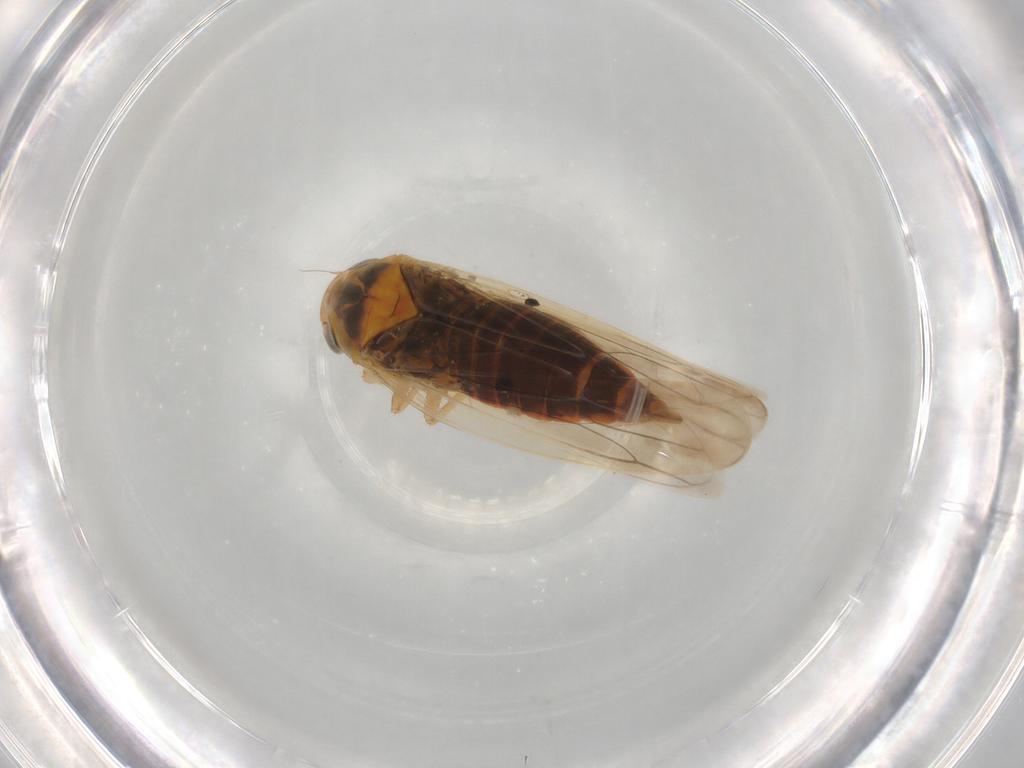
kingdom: Animalia
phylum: Arthropoda
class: Insecta
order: Hemiptera
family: Cicadellidae
